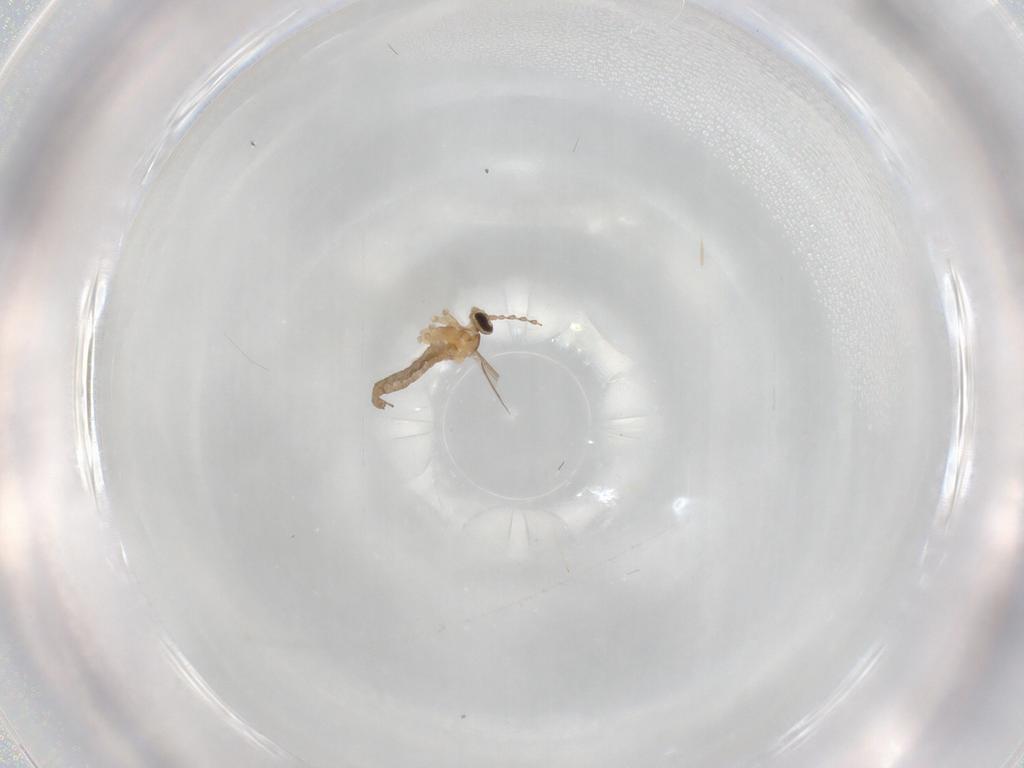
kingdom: Animalia
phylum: Arthropoda
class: Insecta
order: Diptera
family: Cecidomyiidae
